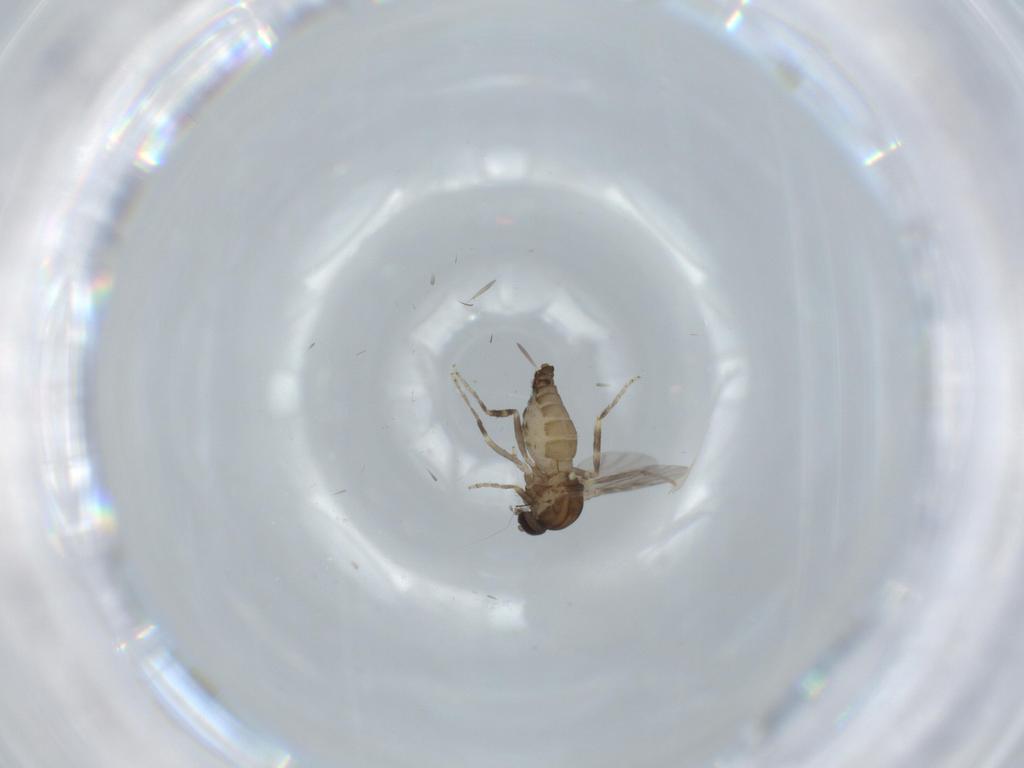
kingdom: Animalia
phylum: Arthropoda
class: Insecta
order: Diptera
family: Ceratopogonidae
